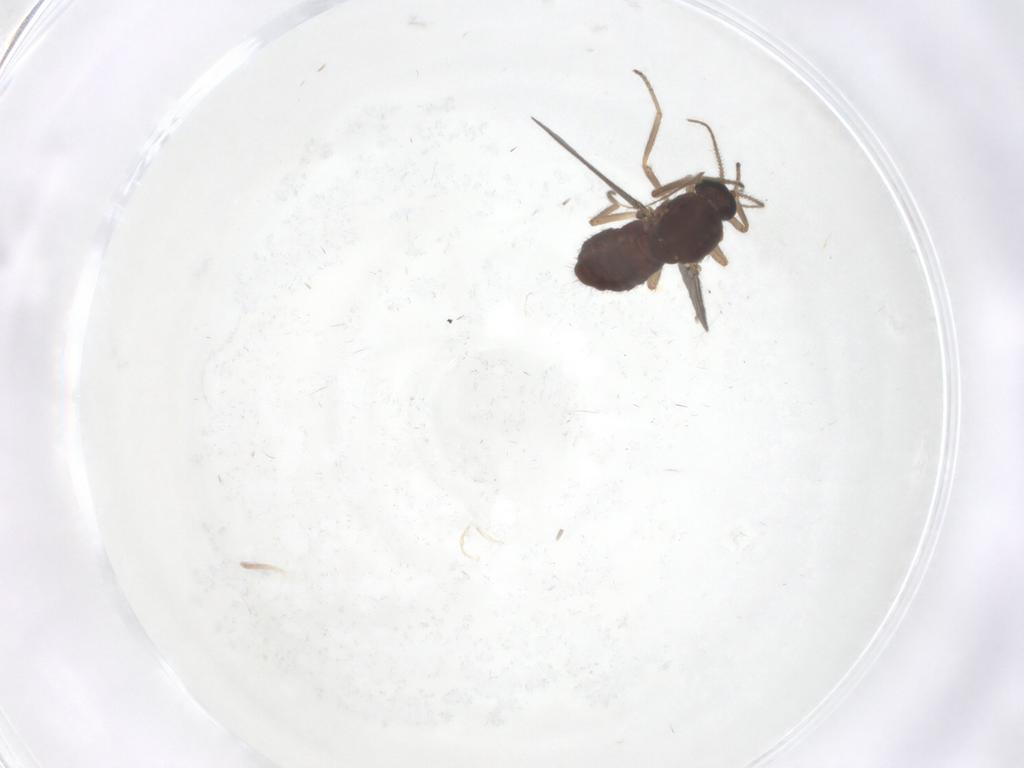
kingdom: Animalia
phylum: Arthropoda
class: Insecta
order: Diptera
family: Ceratopogonidae
